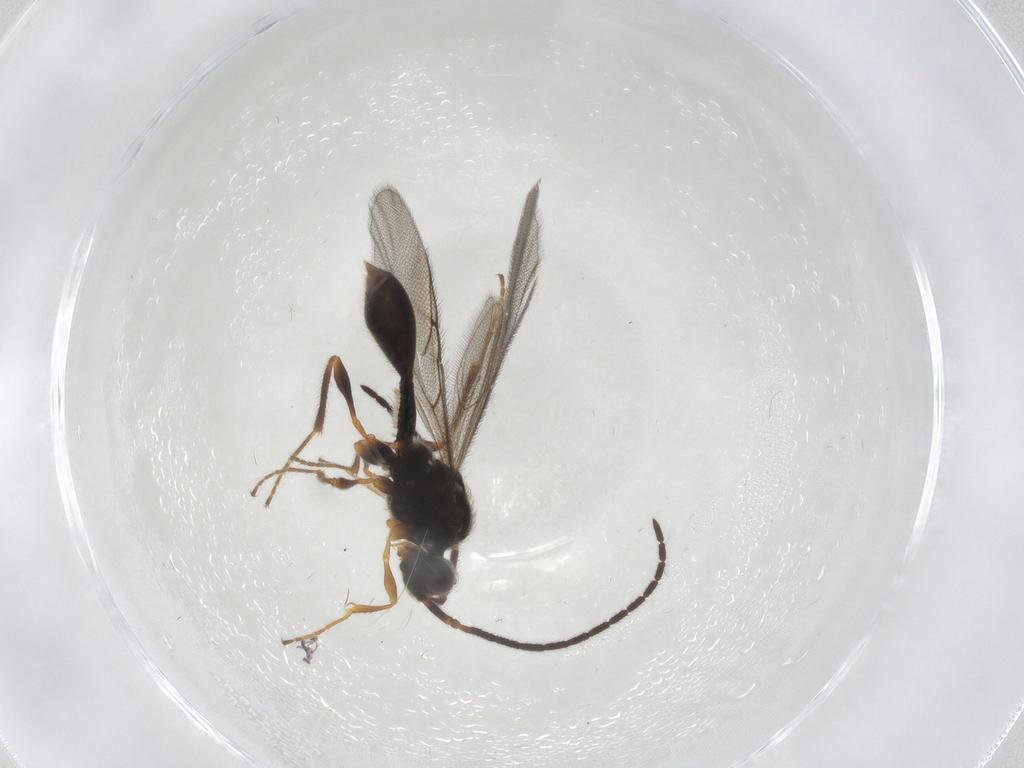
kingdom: Animalia
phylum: Arthropoda
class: Insecta
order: Hymenoptera
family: Diapriidae
